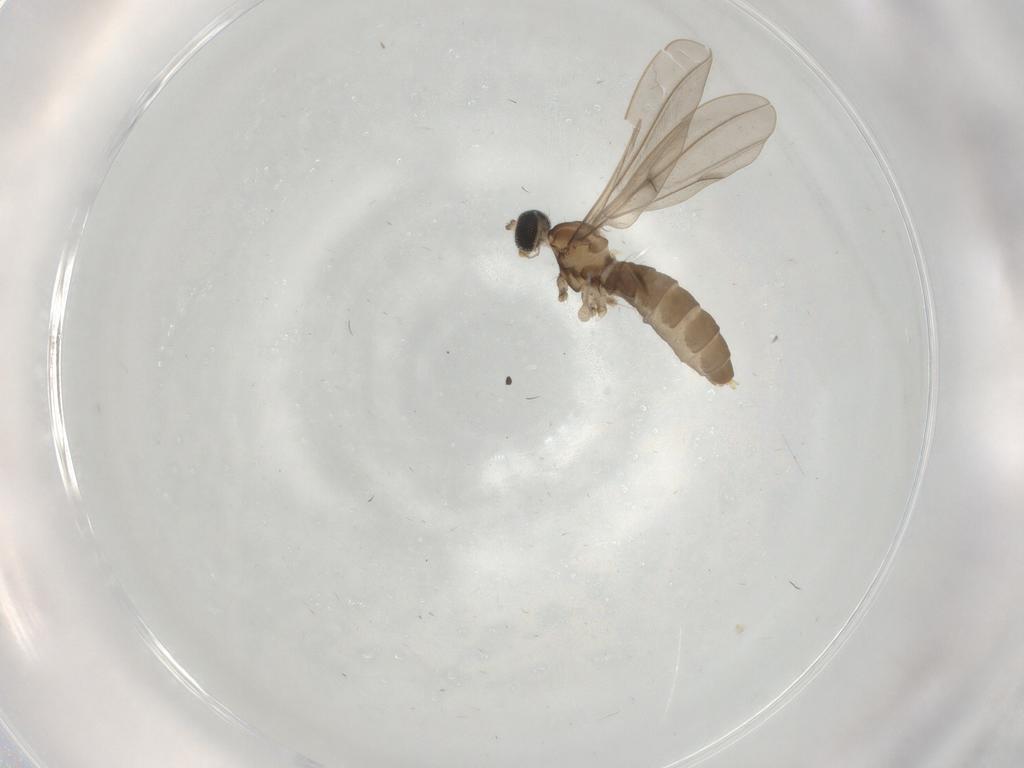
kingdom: Animalia
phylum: Arthropoda
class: Insecta
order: Diptera
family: Cecidomyiidae
